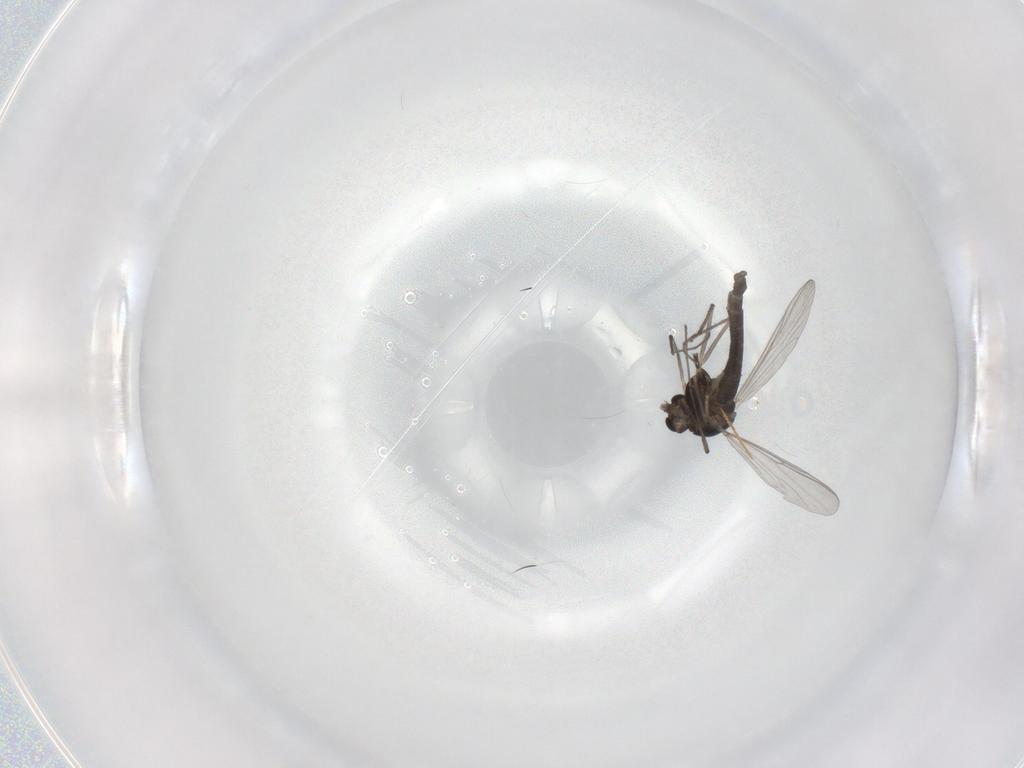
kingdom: Animalia
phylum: Arthropoda
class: Insecta
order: Diptera
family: Chironomidae
